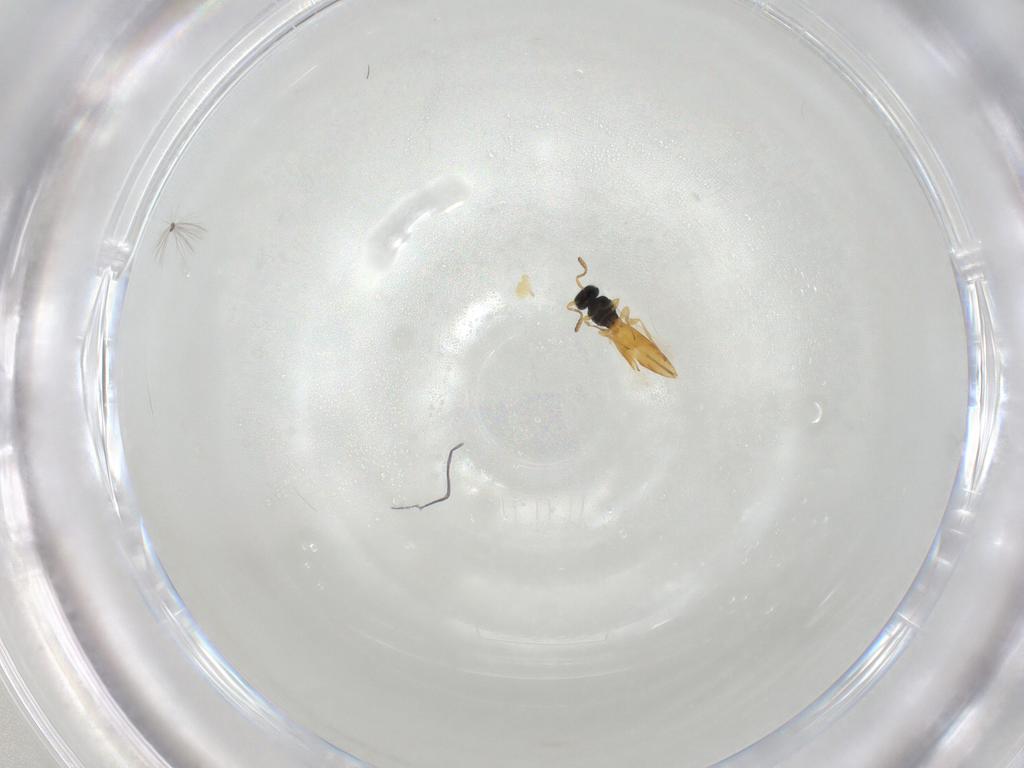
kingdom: Animalia
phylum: Arthropoda
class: Insecta
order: Hymenoptera
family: Scelionidae
